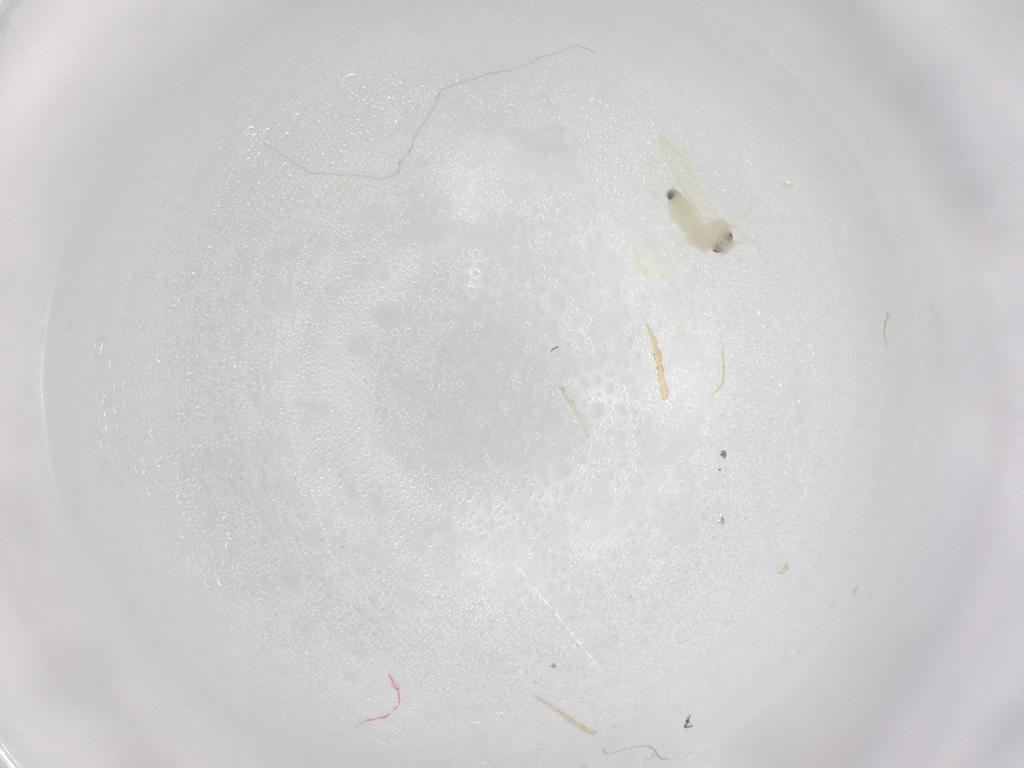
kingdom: Animalia
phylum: Arthropoda
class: Insecta
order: Hemiptera
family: Aleyrodidae
